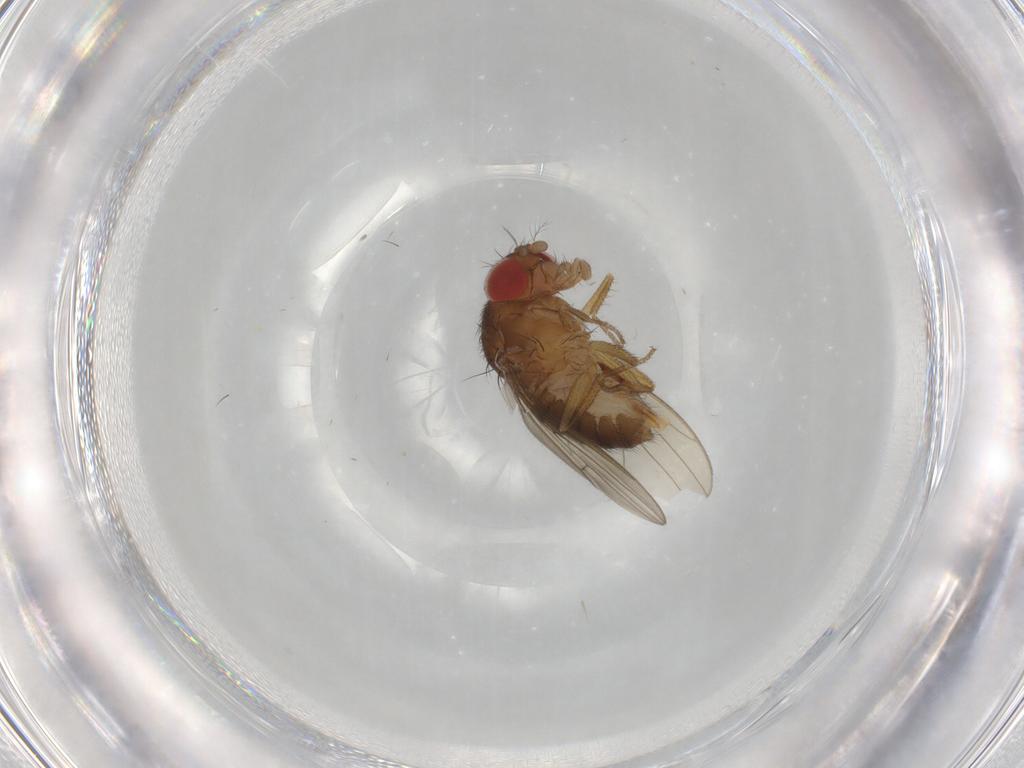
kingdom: Animalia
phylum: Arthropoda
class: Insecta
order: Diptera
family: Drosophilidae
